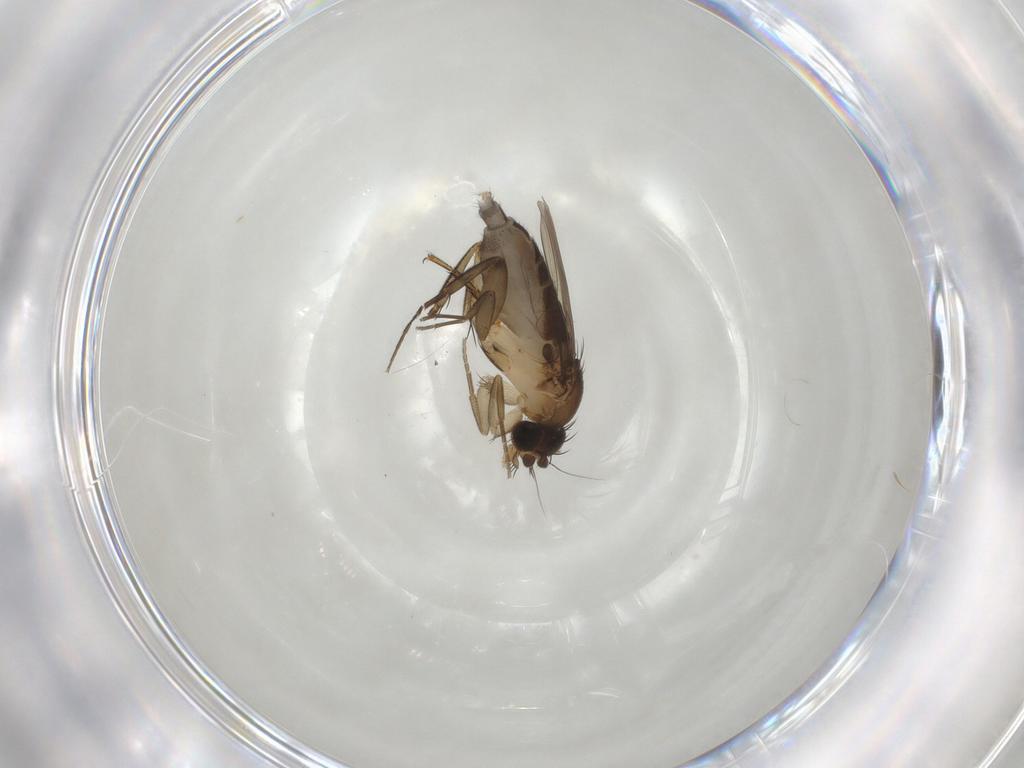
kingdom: Animalia
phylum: Arthropoda
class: Insecta
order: Diptera
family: Phoridae
